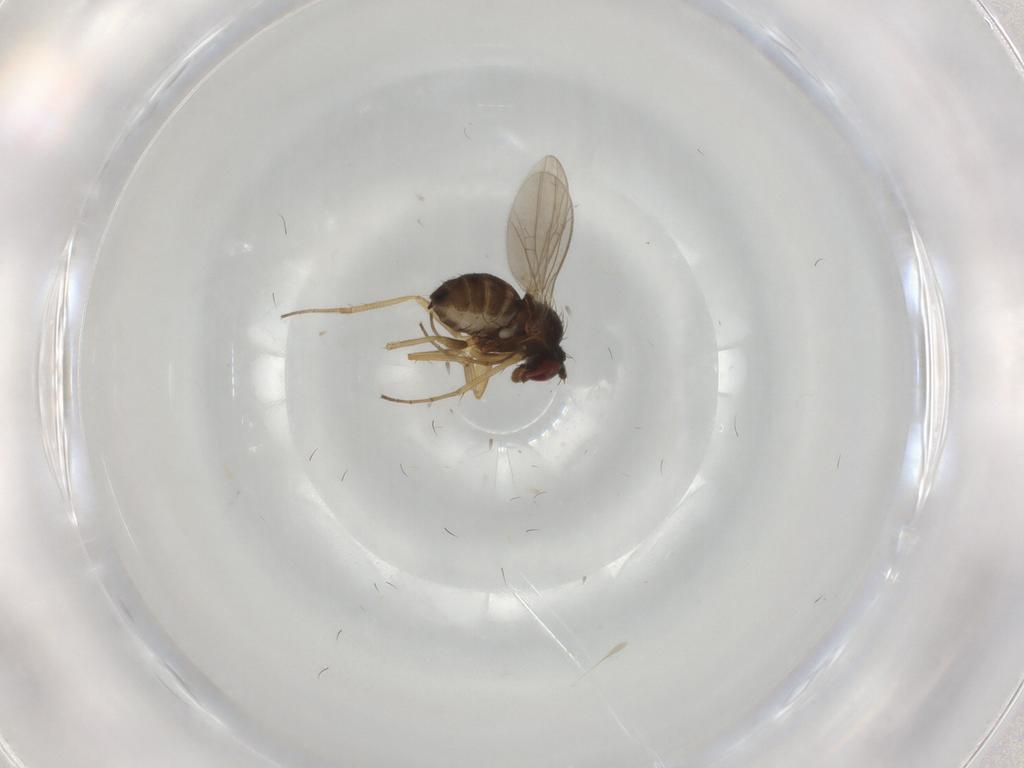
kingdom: Animalia
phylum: Arthropoda
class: Insecta
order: Diptera
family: Dolichopodidae
